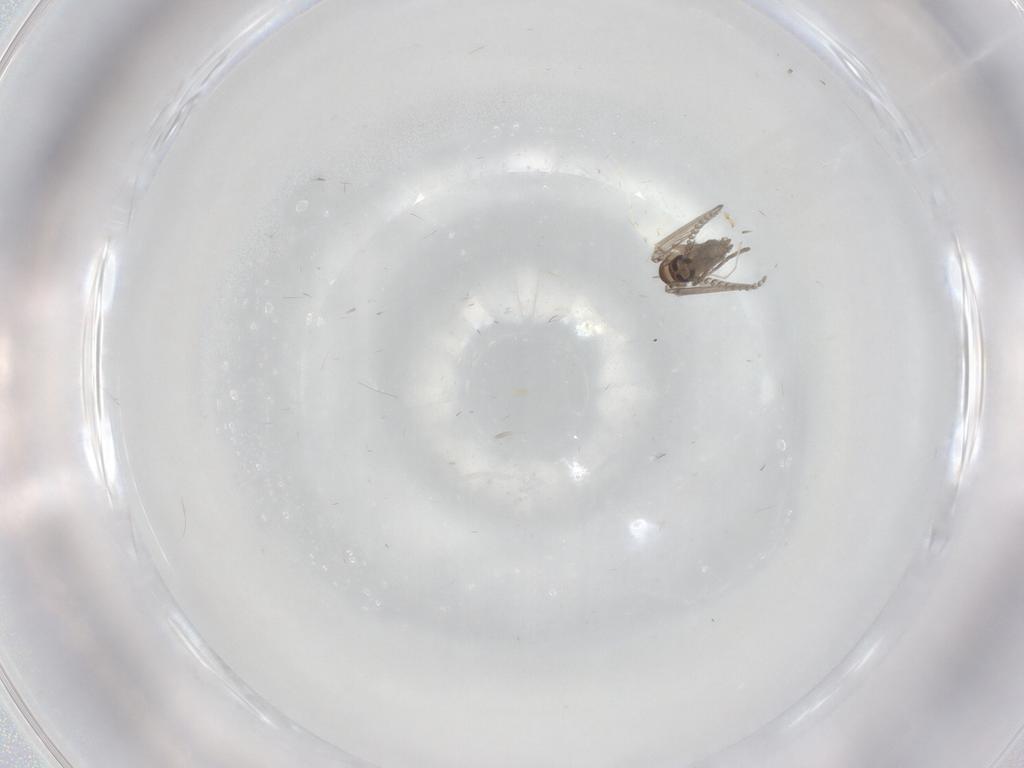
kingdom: Animalia
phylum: Arthropoda
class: Insecta
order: Diptera
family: Ceratopogonidae
